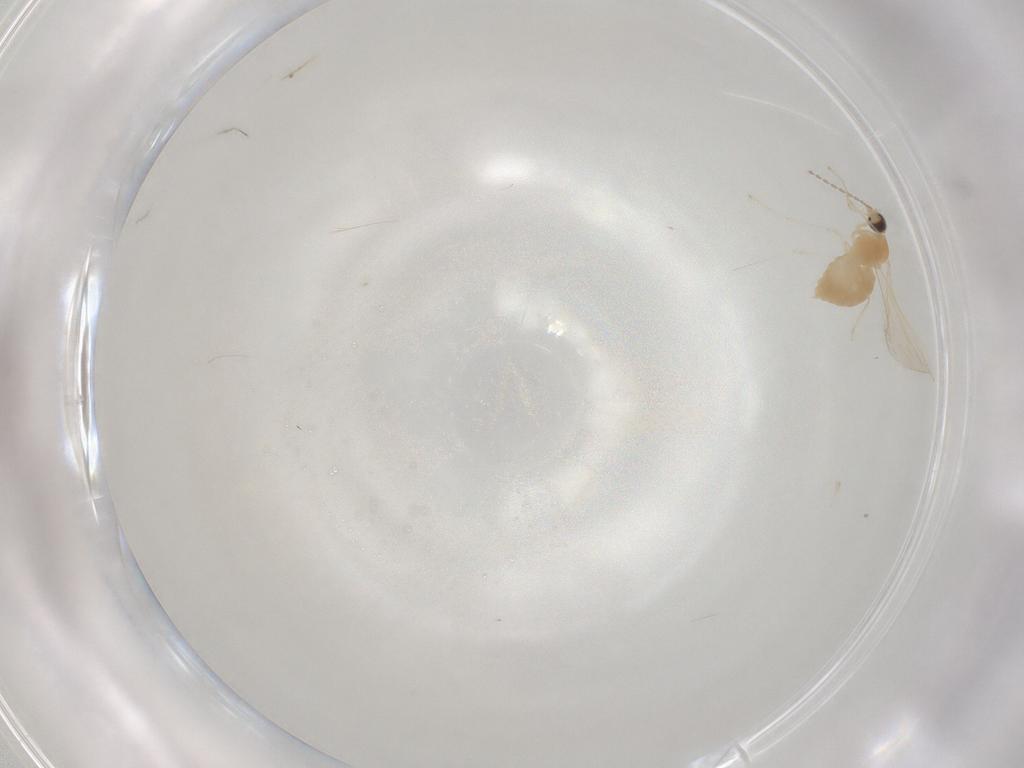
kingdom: Animalia
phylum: Arthropoda
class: Insecta
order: Diptera
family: Cecidomyiidae
